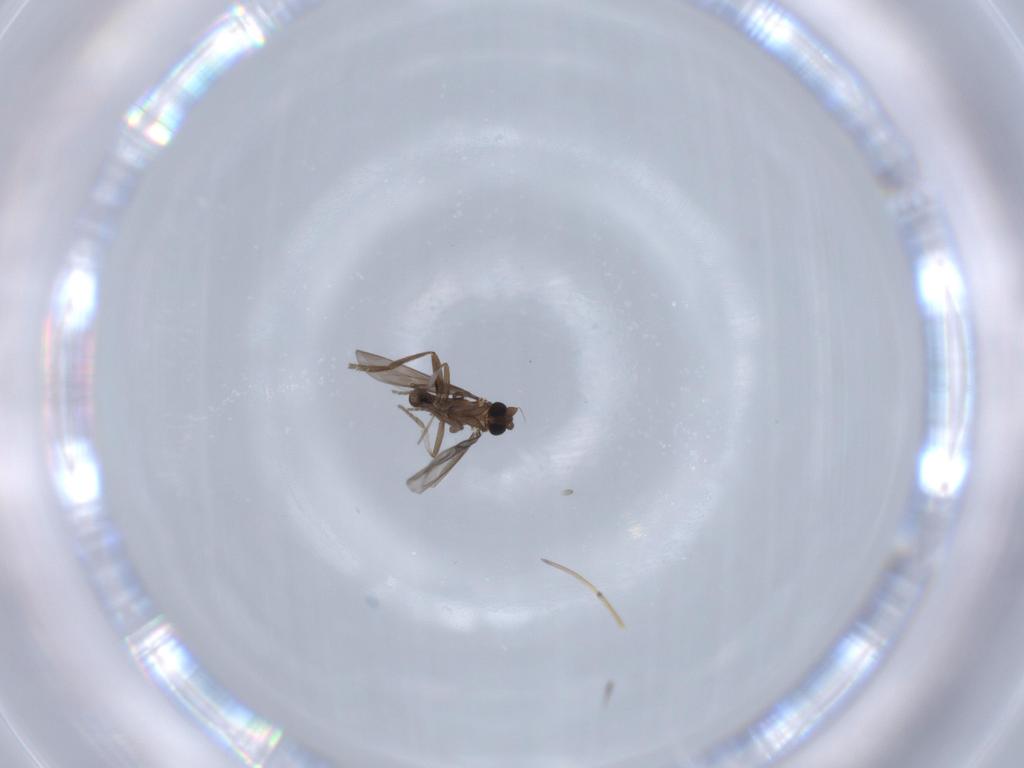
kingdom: Animalia
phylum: Arthropoda
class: Insecta
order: Diptera
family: Phoridae
